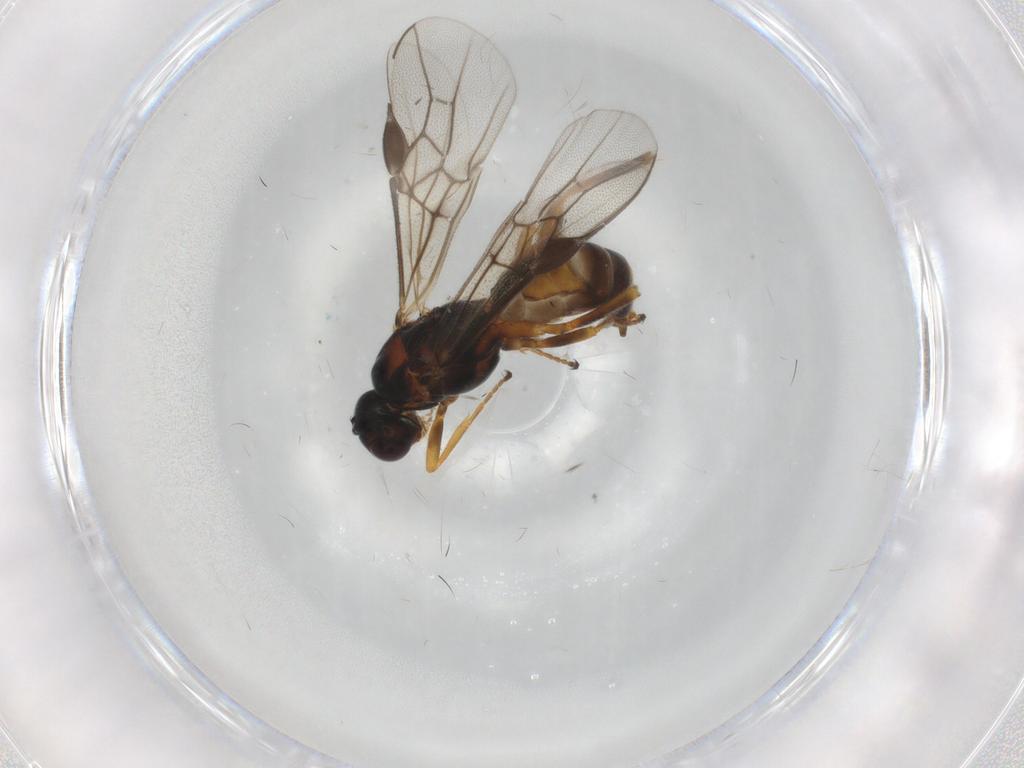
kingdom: Animalia
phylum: Arthropoda
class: Insecta
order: Hymenoptera
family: Braconidae
